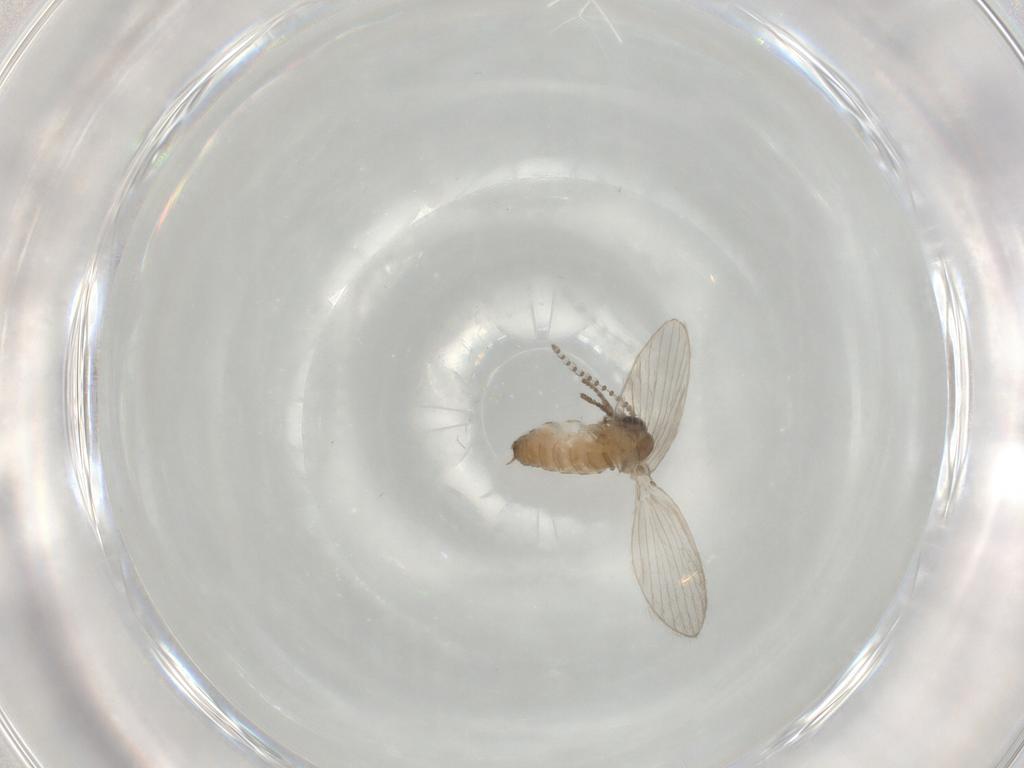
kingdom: Animalia
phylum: Arthropoda
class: Insecta
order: Diptera
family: Psychodidae
